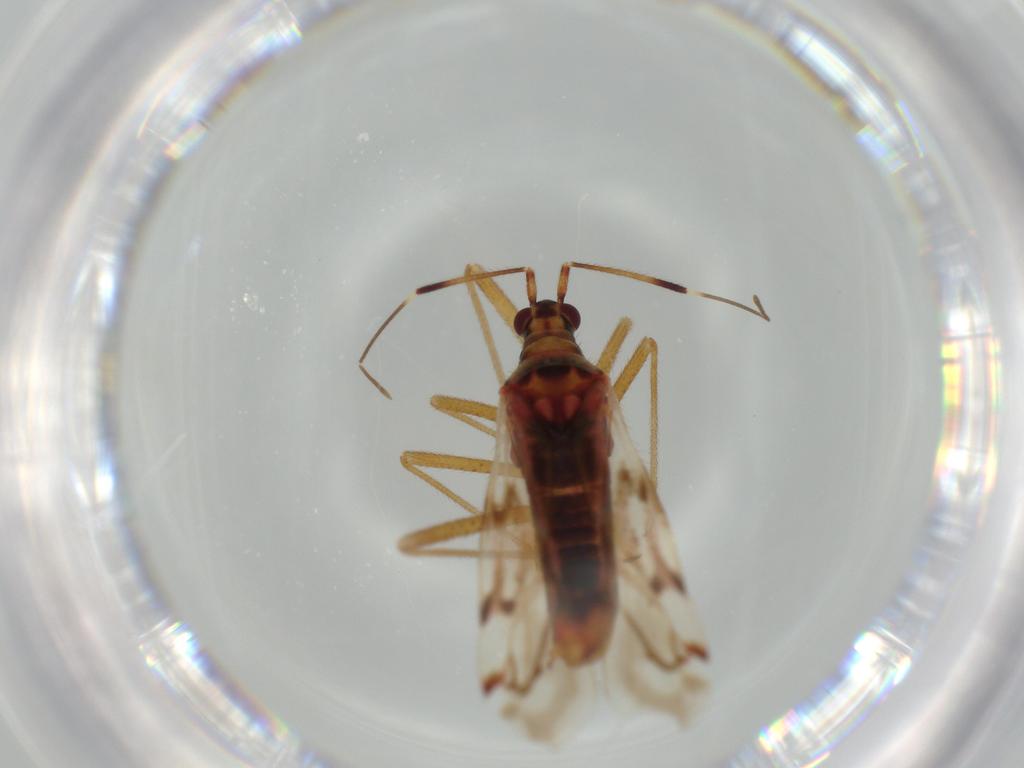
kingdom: Animalia
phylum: Arthropoda
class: Insecta
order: Hemiptera
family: Miridae
